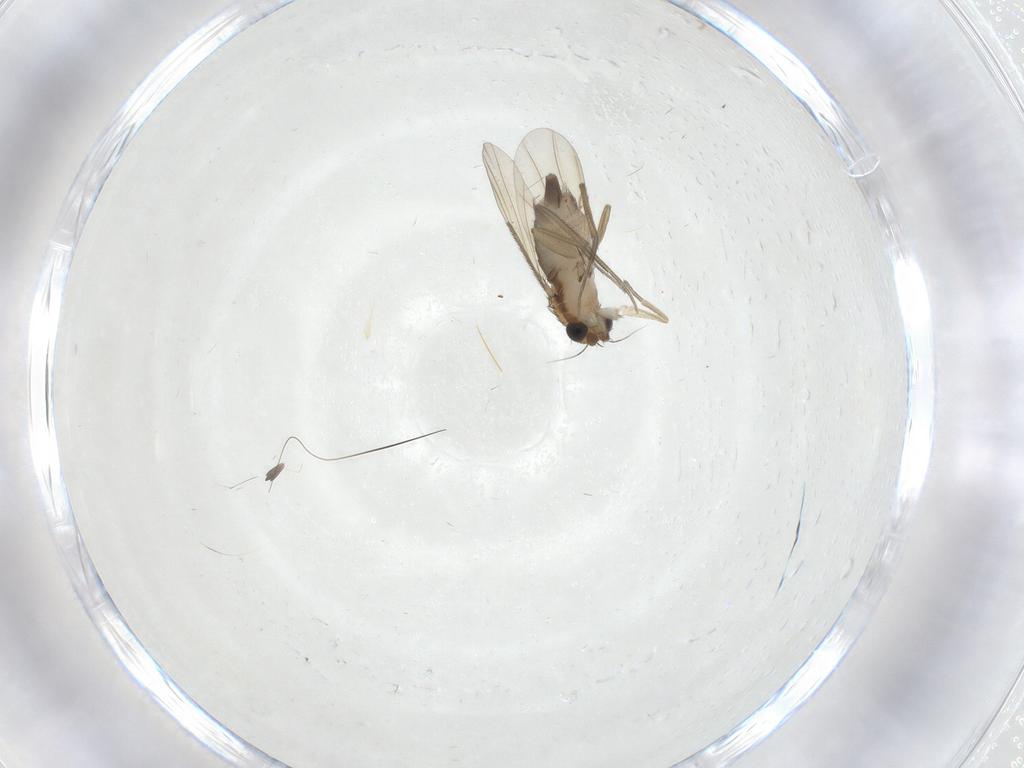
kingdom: Animalia
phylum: Arthropoda
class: Insecta
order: Diptera
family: Phoridae
